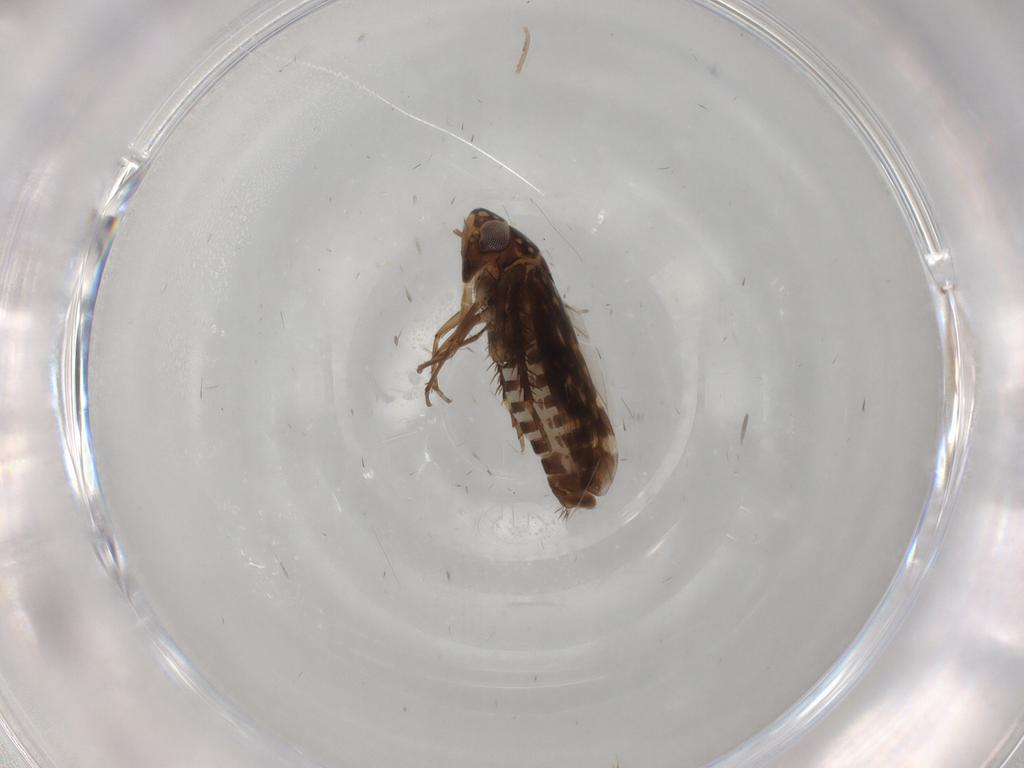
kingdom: Animalia
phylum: Arthropoda
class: Insecta
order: Hemiptera
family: Cicadellidae
